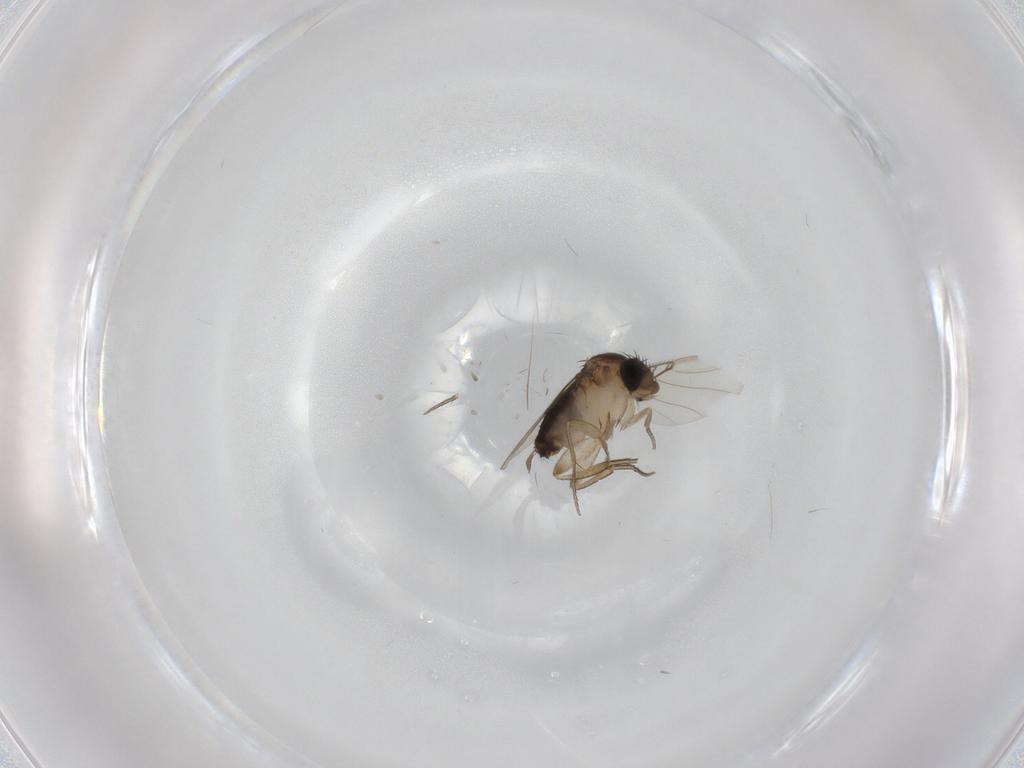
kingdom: Animalia
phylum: Arthropoda
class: Insecta
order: Diptera
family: Chironomidae
